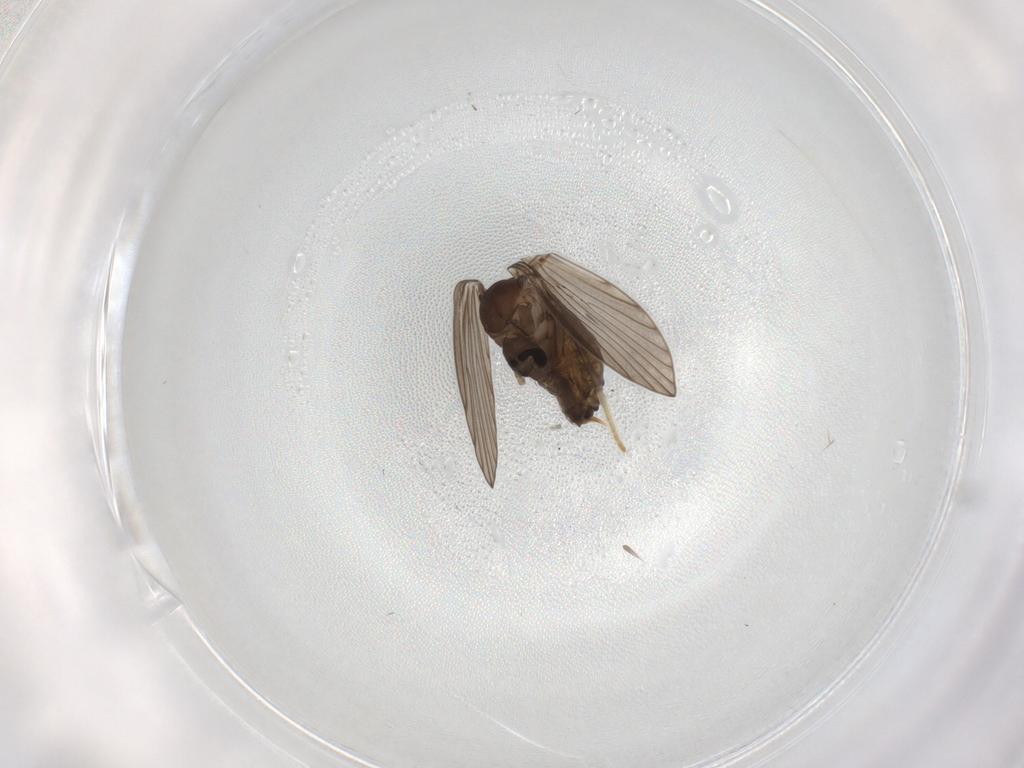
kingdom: Animalia
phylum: Arthropoda
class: Insecta
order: Diptera
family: Psychodidae
